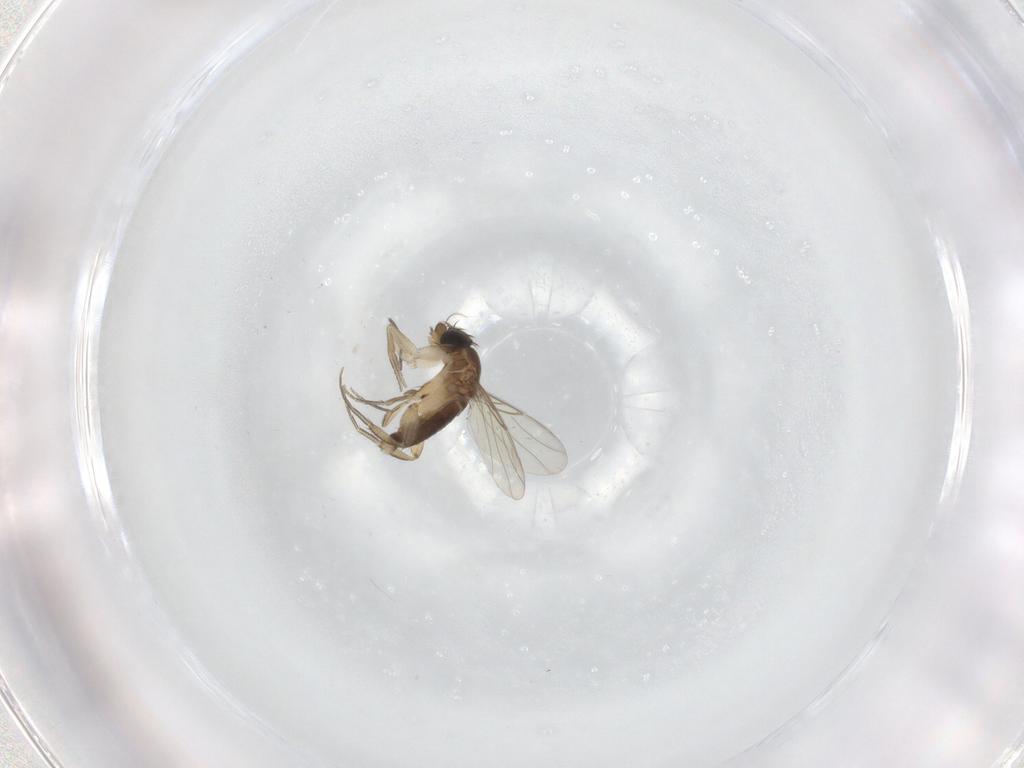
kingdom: Animalia
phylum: Arthropoda
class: Insecta
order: Diptera
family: Phoridae
